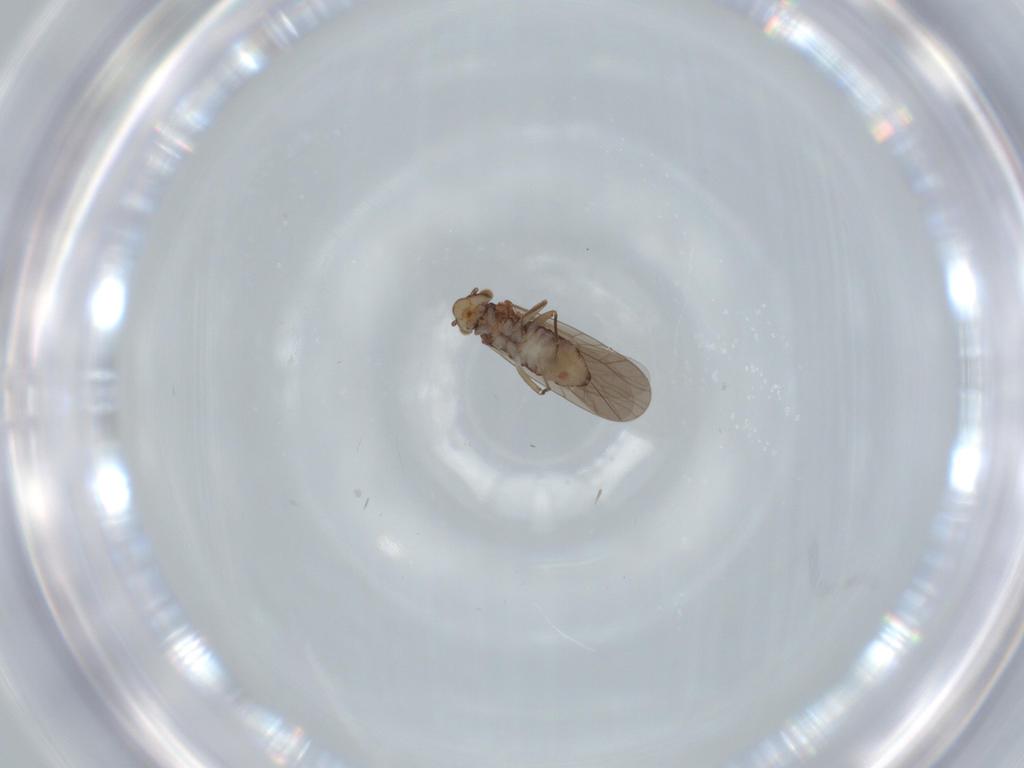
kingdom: Animalia
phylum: Arthropoda
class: Insecta
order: Psocodea
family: Lepidopsocidae
